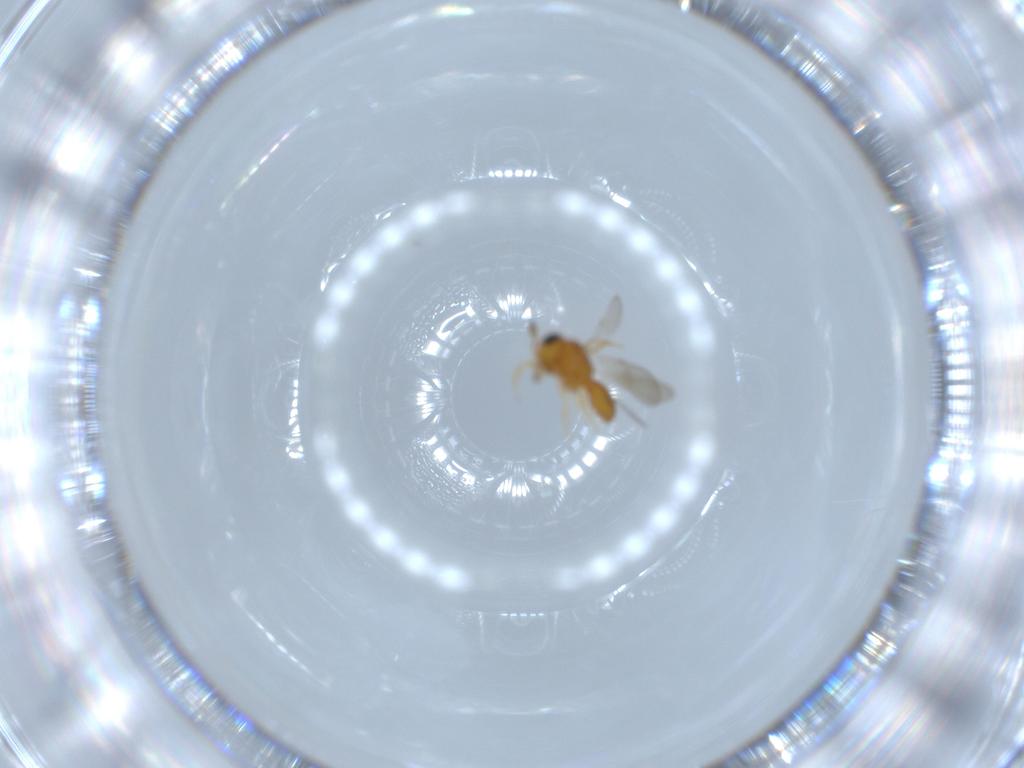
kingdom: Animalia
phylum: Arthropoda
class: Insecta
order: Hymenoptera
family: Scelionidae
